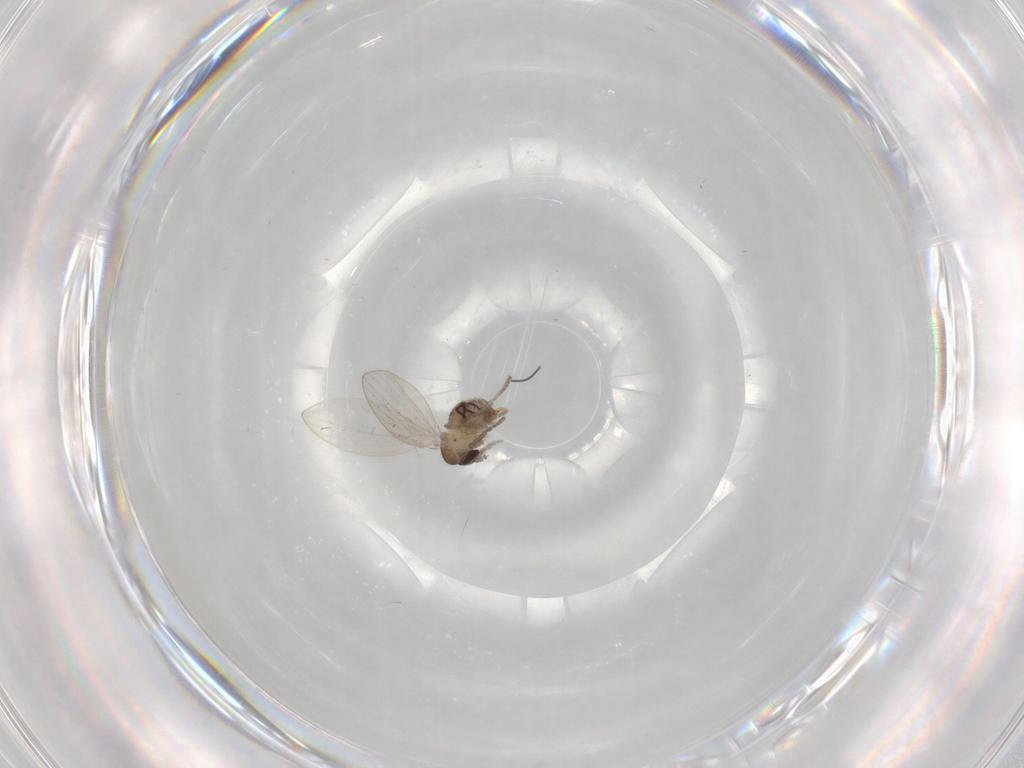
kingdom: Animalia
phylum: Arthropoda
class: Insecta
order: Diptera
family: Psychodidae
